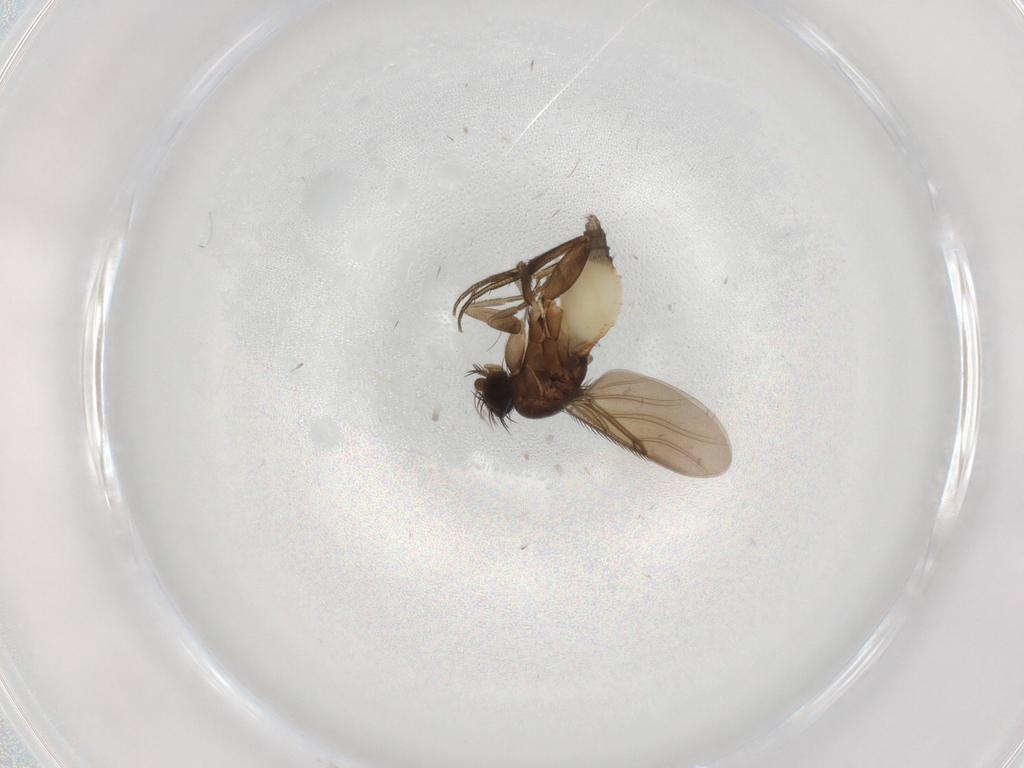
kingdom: Animalia
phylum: Arthropoda
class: Insecta
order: Diptera
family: Phoridae
